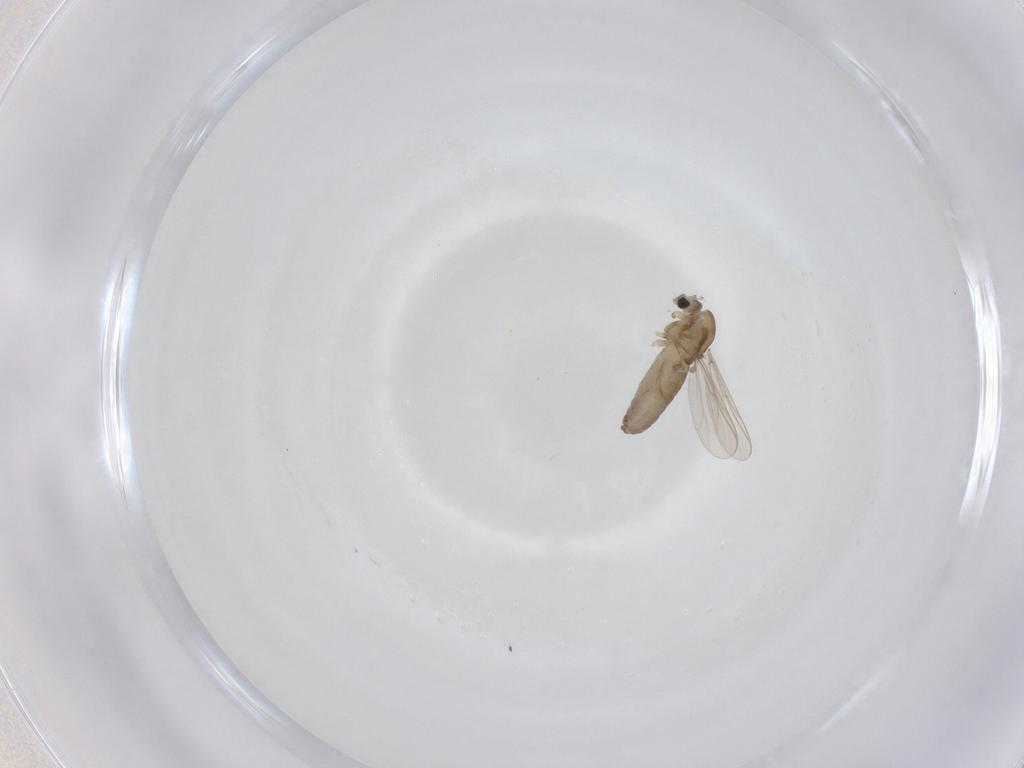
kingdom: Animalia
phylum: Arthropoda
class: Insecta
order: Diptera
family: Chironomidae
